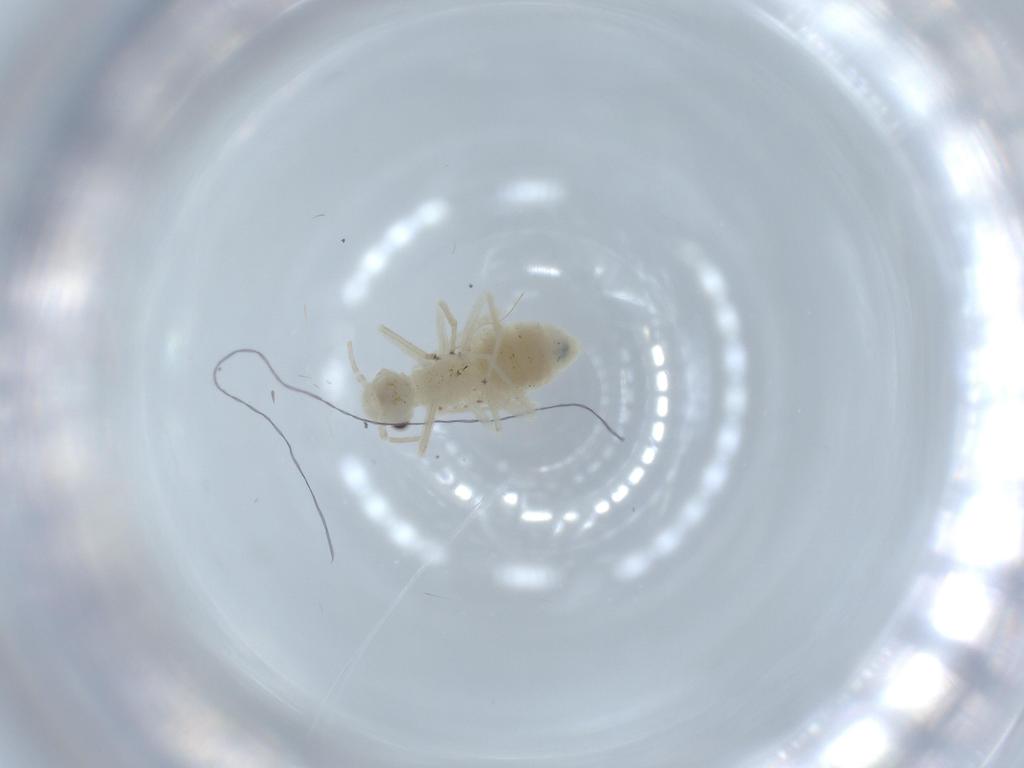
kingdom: Animalia
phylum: Arthropoda
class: Insecta
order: Psocodea
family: Caeciliusidae
